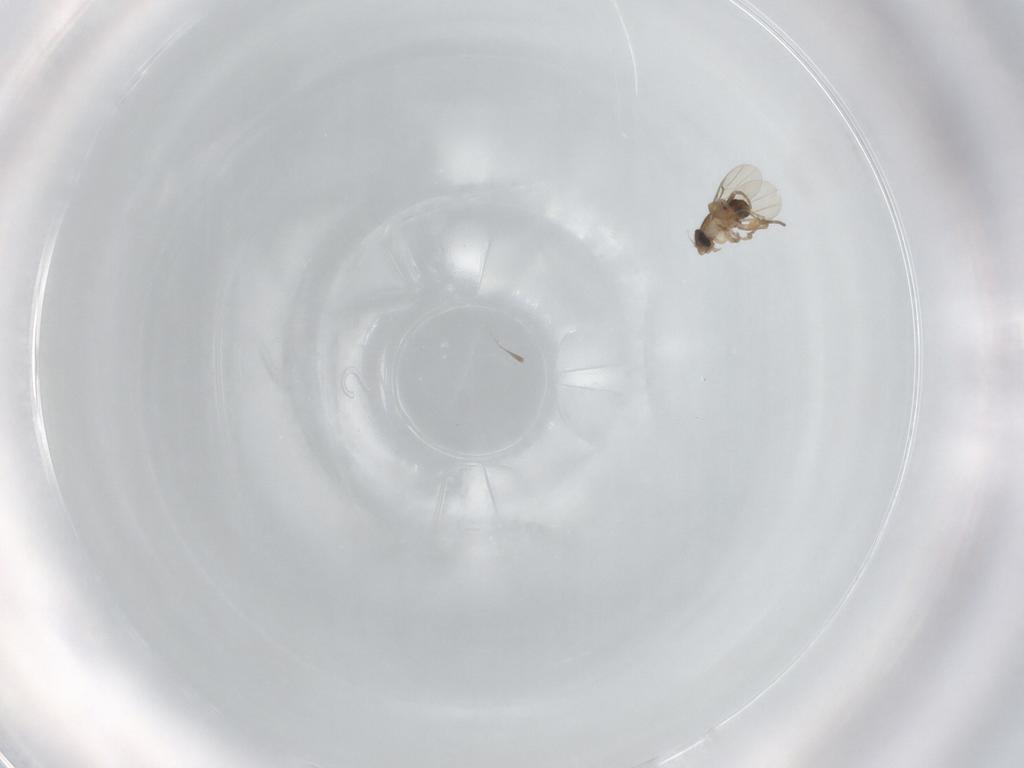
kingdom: Animalia
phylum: Arthropoda
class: Insecta
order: Diptera
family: Phoridae
